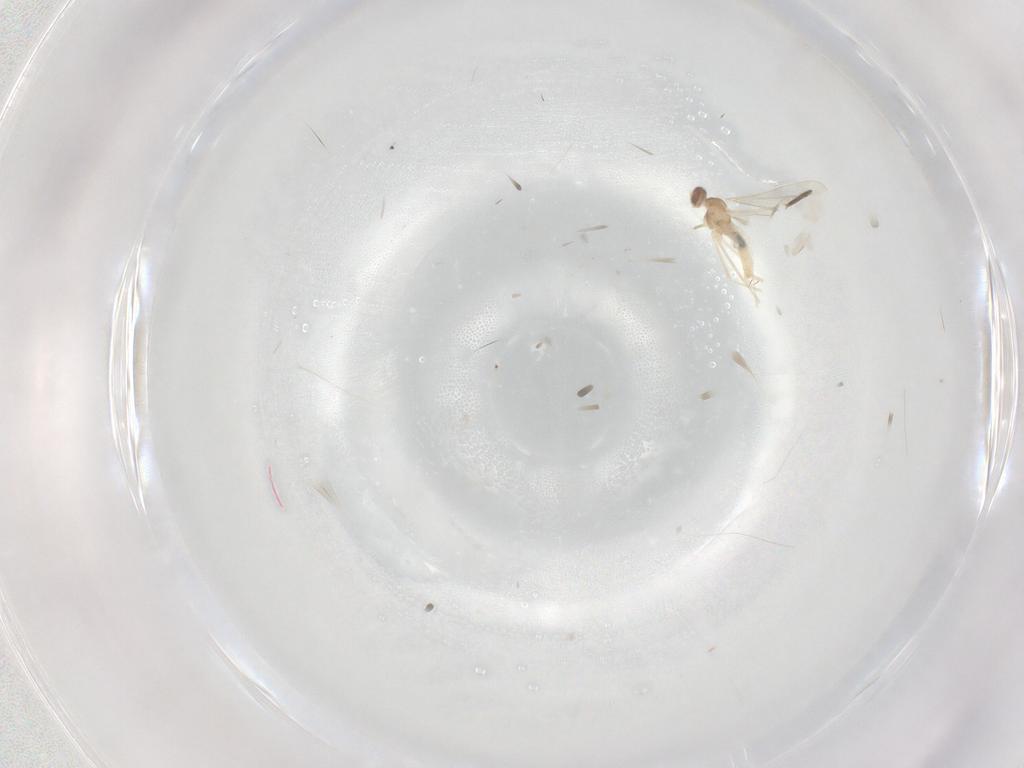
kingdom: Animalia
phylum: Arthropoda
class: Insecta
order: Diptera
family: Cecidomyiidae
